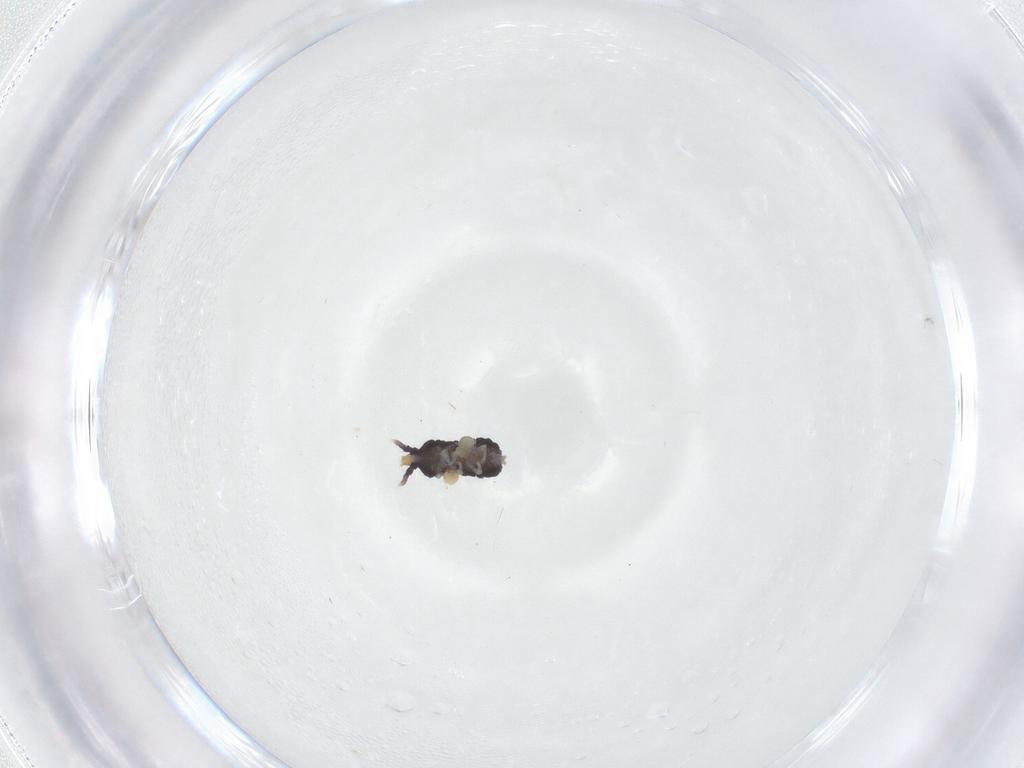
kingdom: Animalia
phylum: Arthropoda
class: Collembola
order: Poduromorpha
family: Neanuridae
